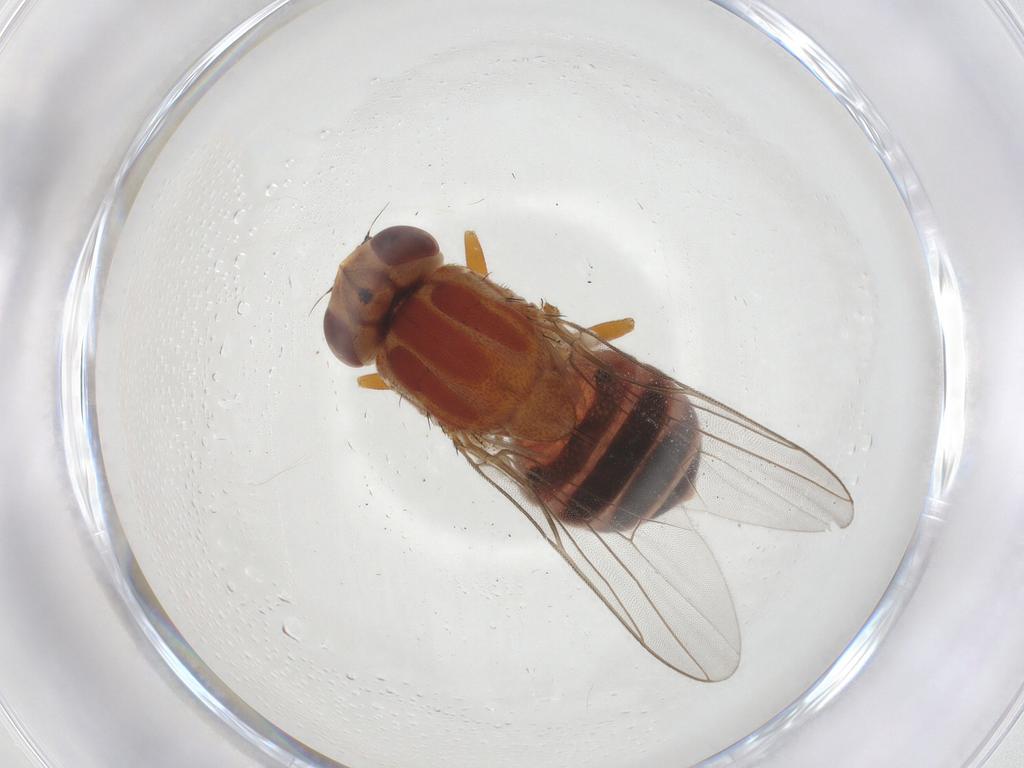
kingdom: Animalia
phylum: Arthropoda
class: Insecta
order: Diptera
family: Chloropidae
